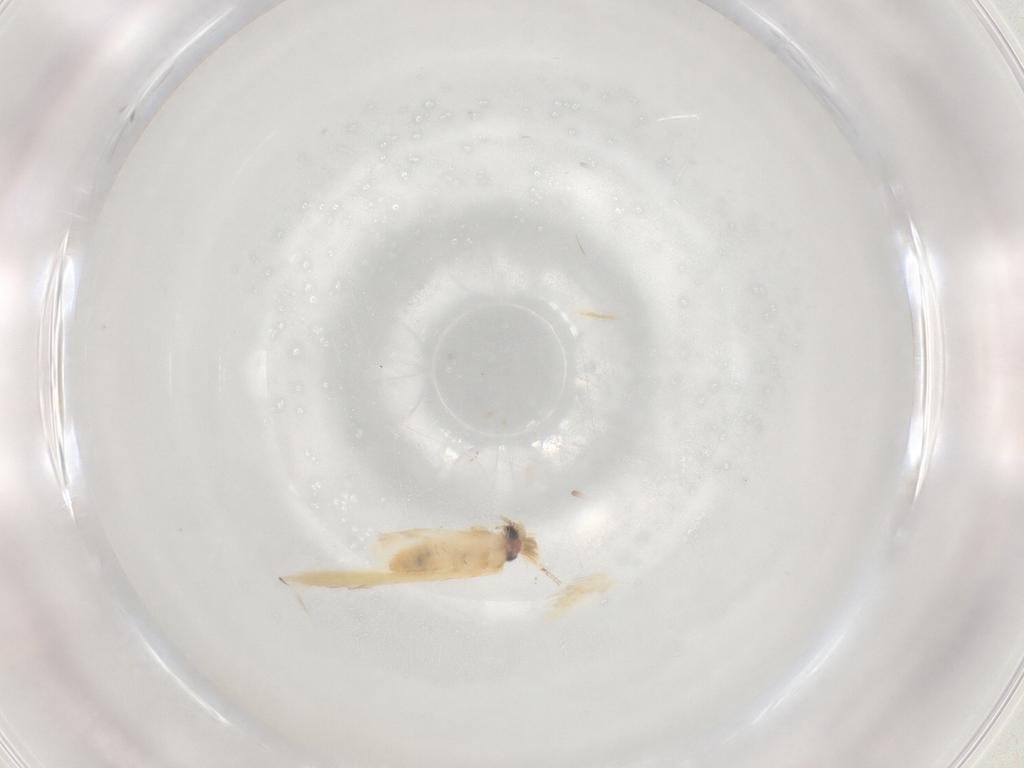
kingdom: Animalia
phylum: Arthropoda
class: Insecta
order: Lepidoptera
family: Nepticulidae
